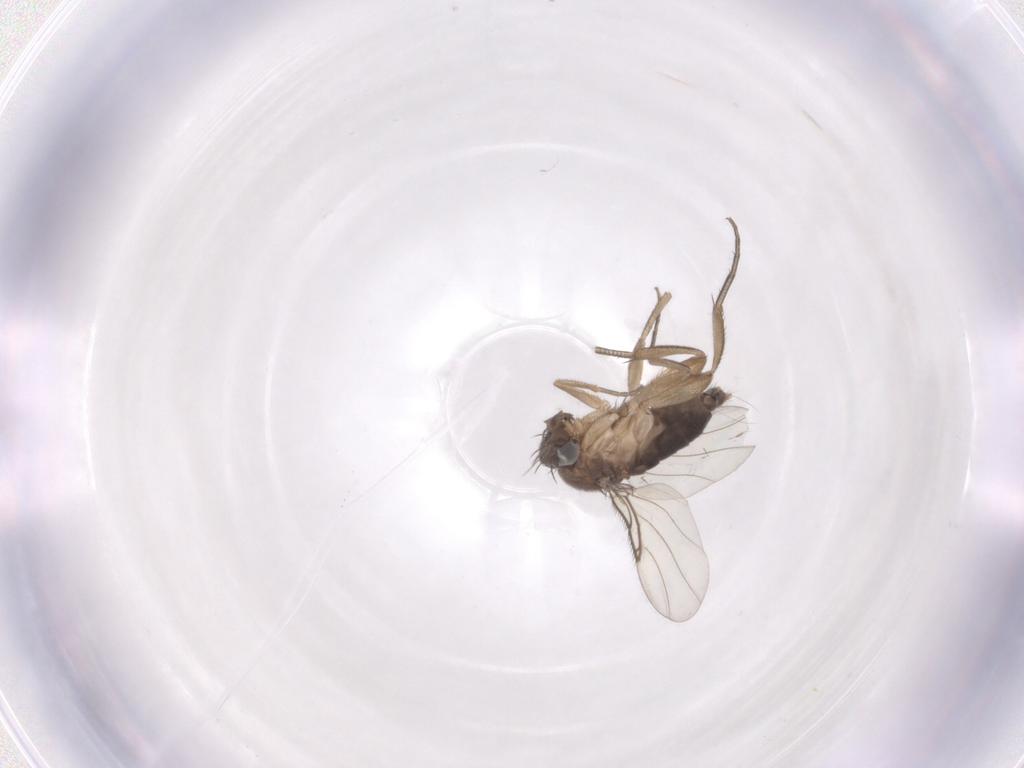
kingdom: Animalia
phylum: Arthropoda
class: Insecta
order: Diptera
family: Phoridae
